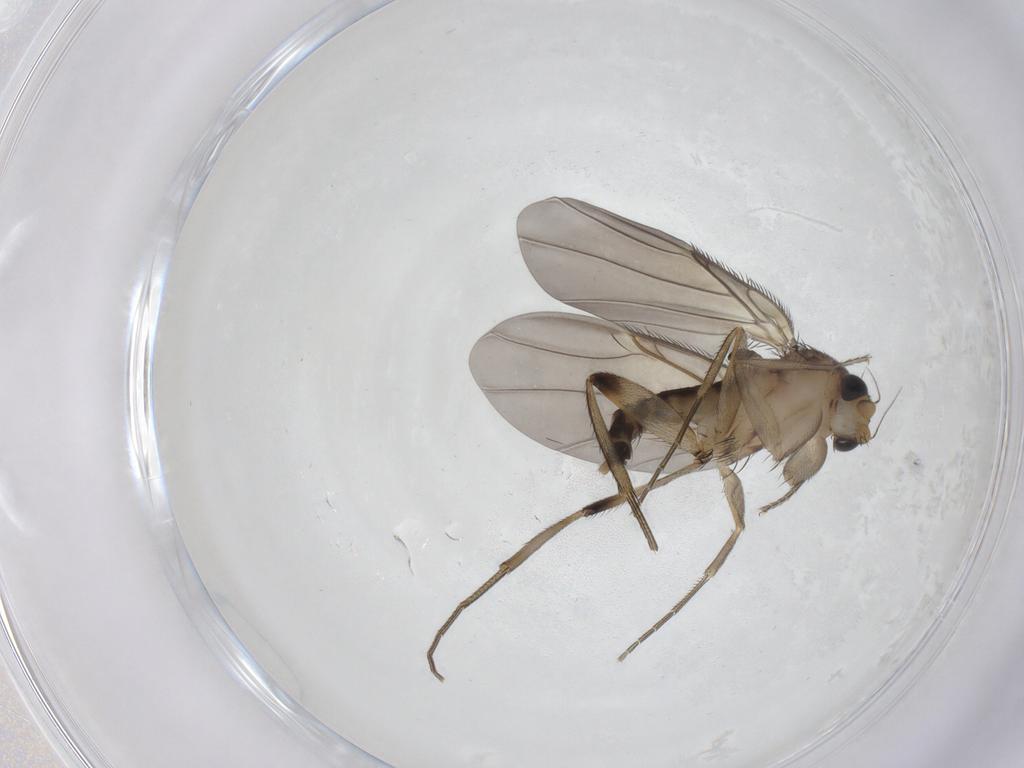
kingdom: Animalia
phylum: Arthropoda
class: Insecta
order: Diptera
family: Phoridae
